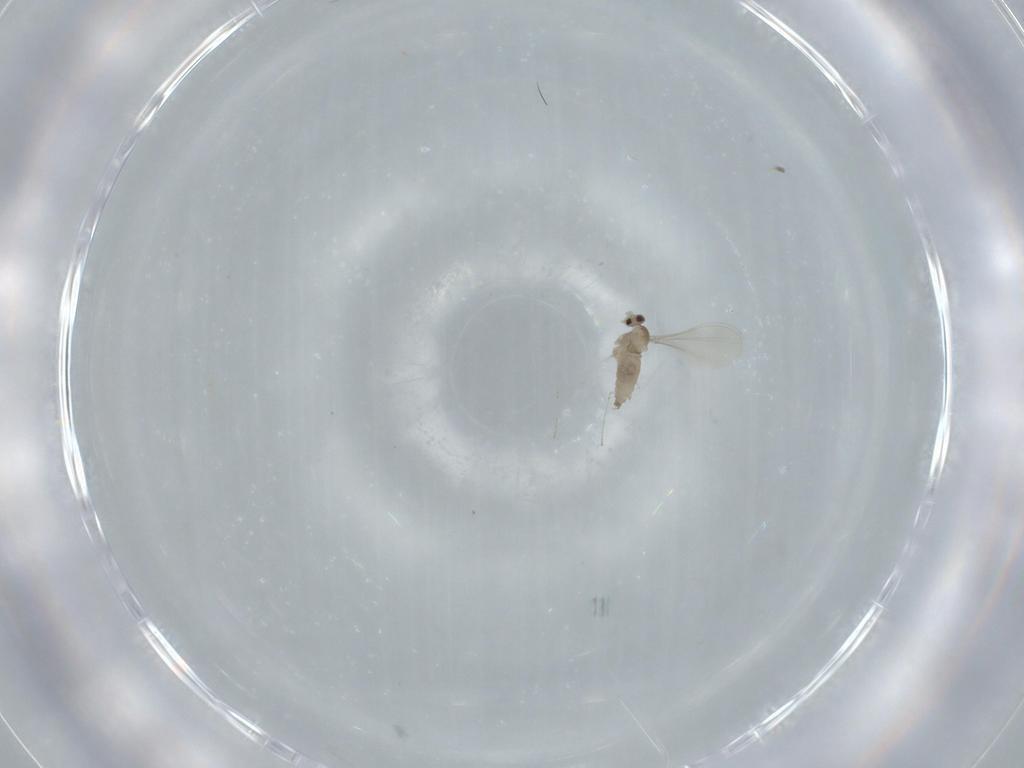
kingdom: Animalia
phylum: Arthropoda
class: Insecta
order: Diptera
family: Cecidomyiidae
